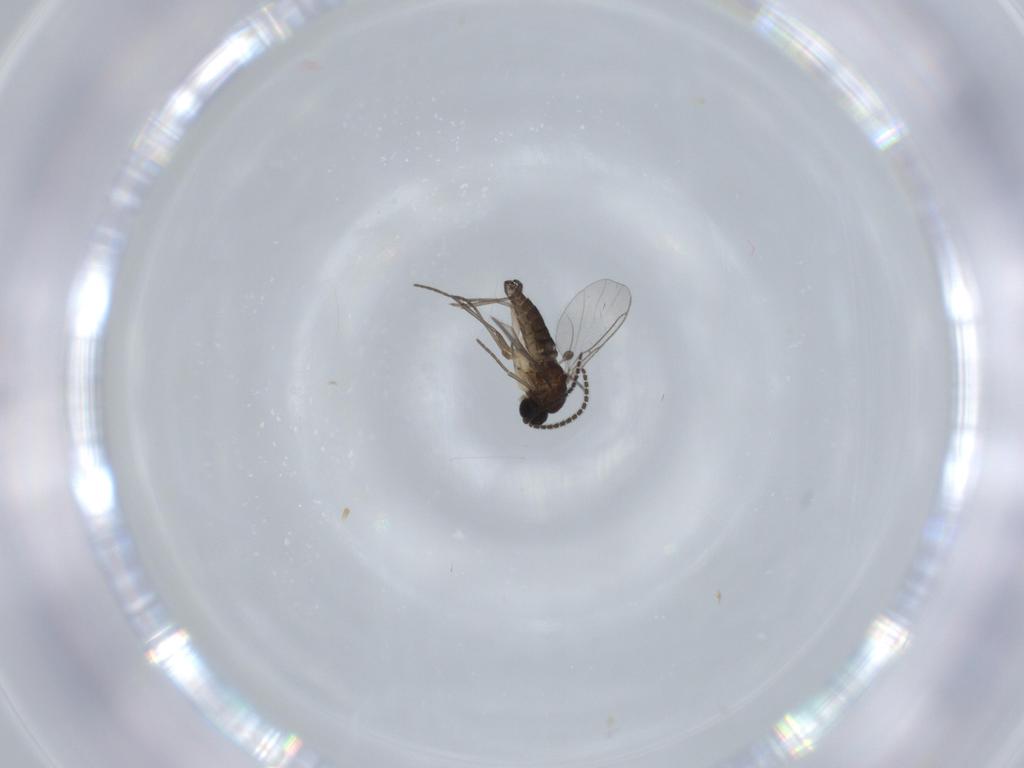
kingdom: Animalia
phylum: Arthropoda
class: Insecta
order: Diptera
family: Sciaridae
